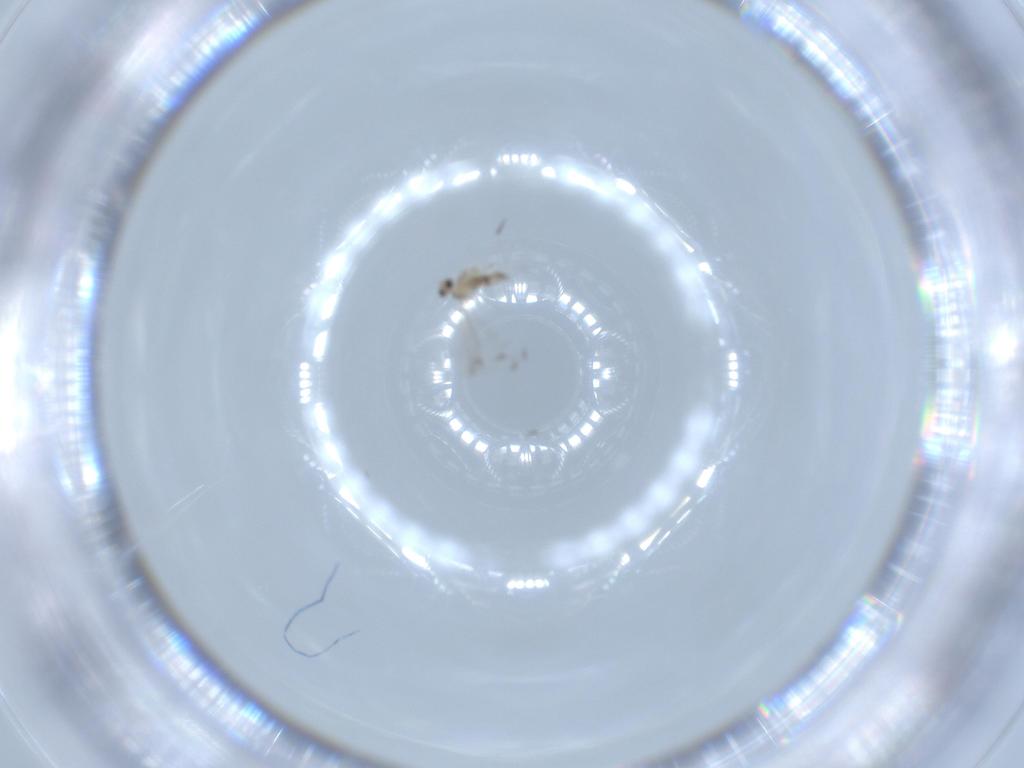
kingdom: Animalia
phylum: Arthropoda
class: Insecta
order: Diptera
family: Cecidomyiidae
